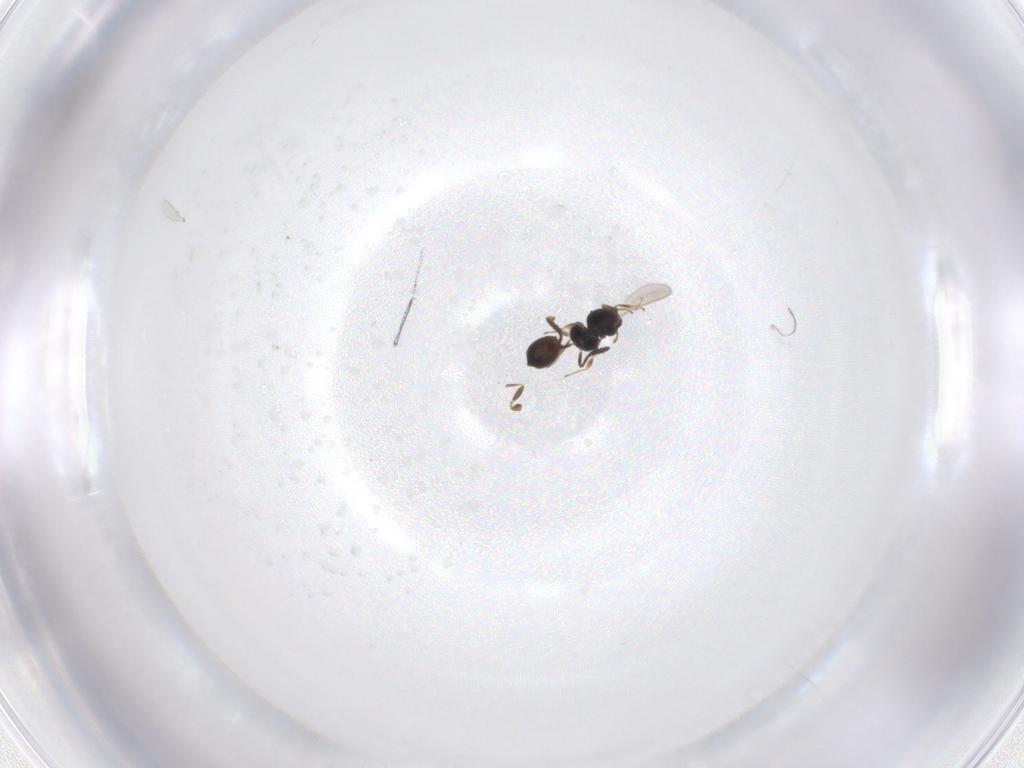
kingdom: Animalia
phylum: Arthropoda
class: Insecta
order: Hymenoptera
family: Scelionidae
